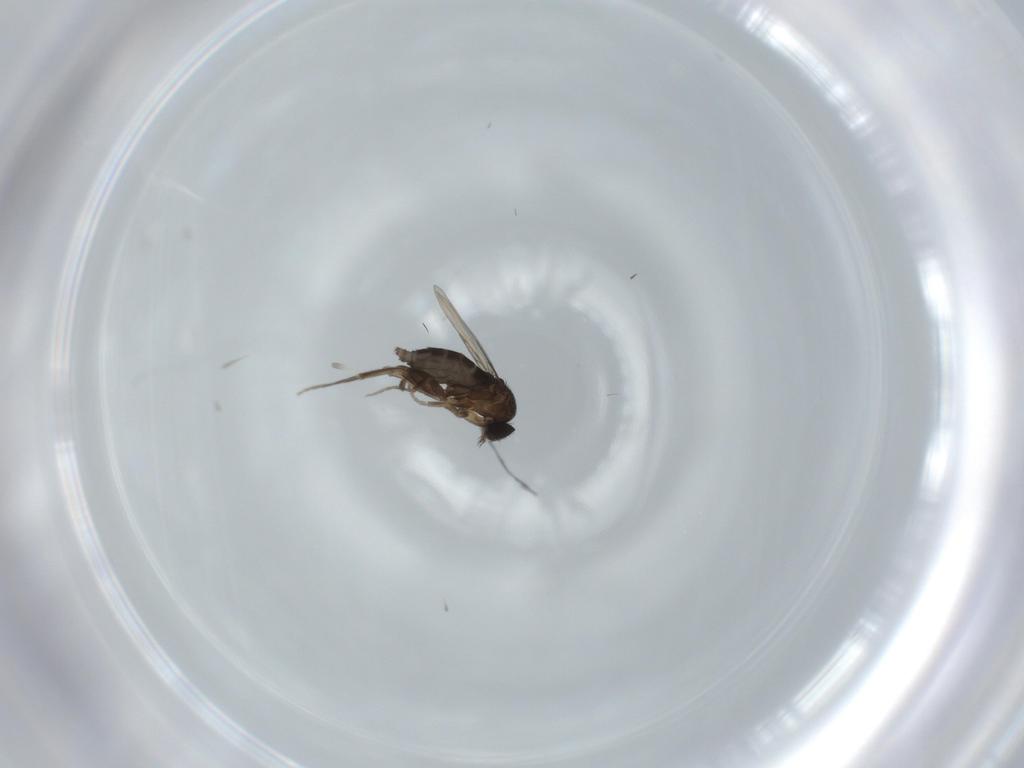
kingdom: Animalia
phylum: Arthropoda
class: Insecta
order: Diptera
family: Phoridae
